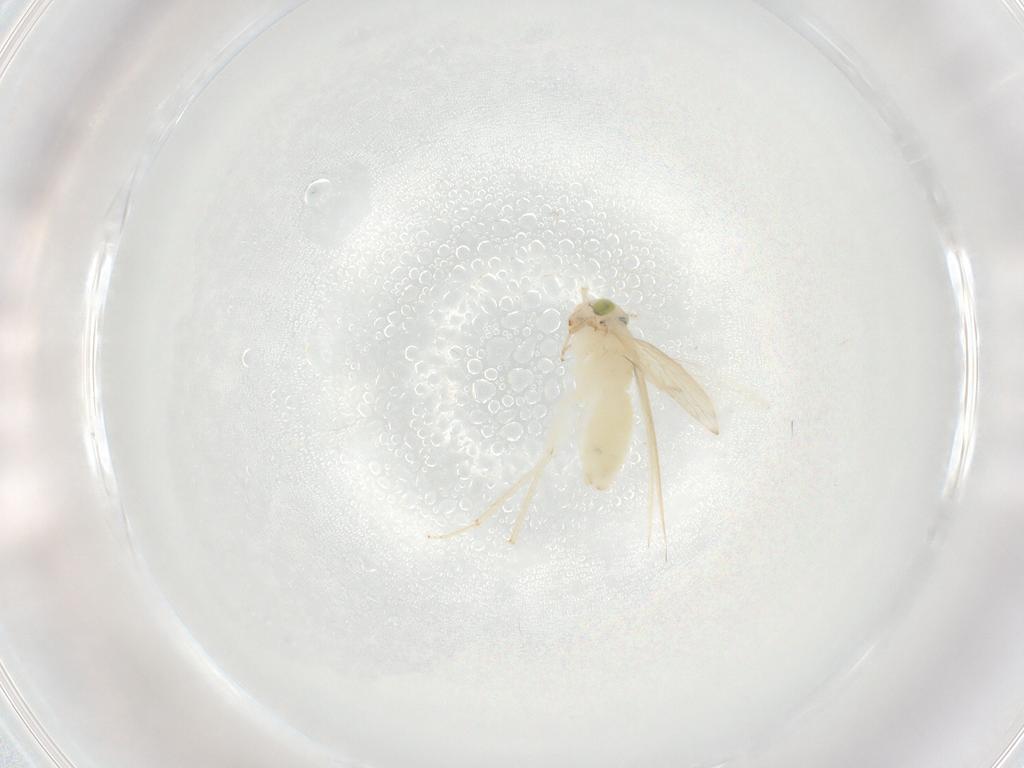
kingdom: Animalia
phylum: Arthropoda
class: Insecta
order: Psocodea
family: Lepidopsocidae
